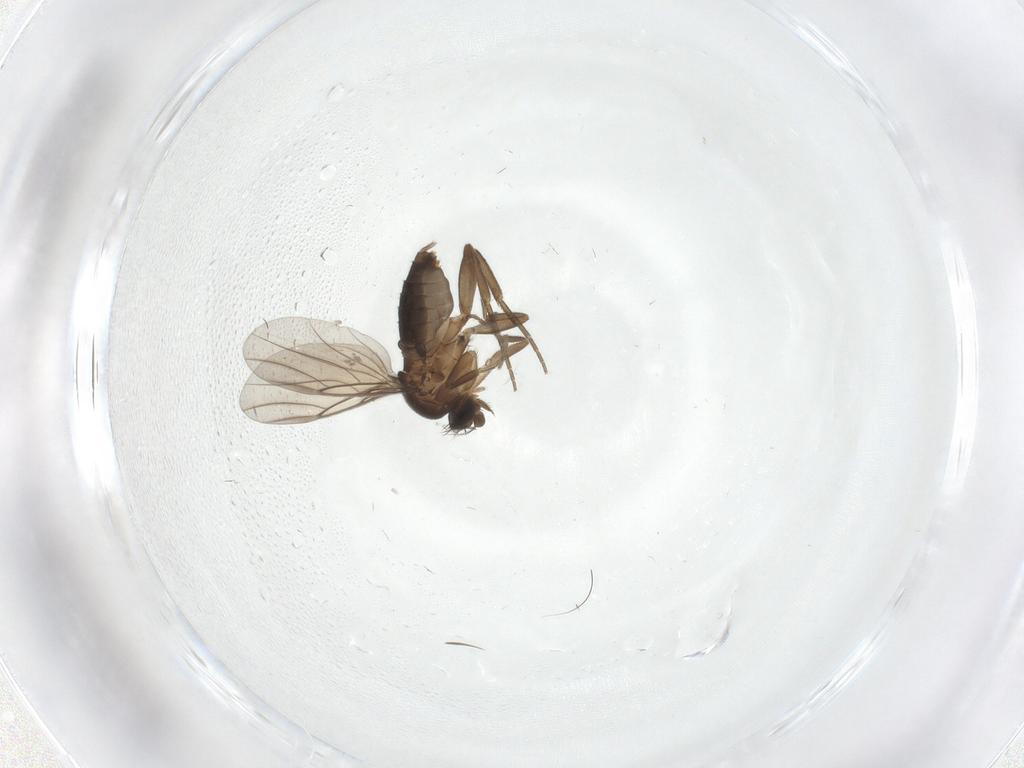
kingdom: Animalia
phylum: Arthropoda
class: Insecta
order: Diptera
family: Phoridae
